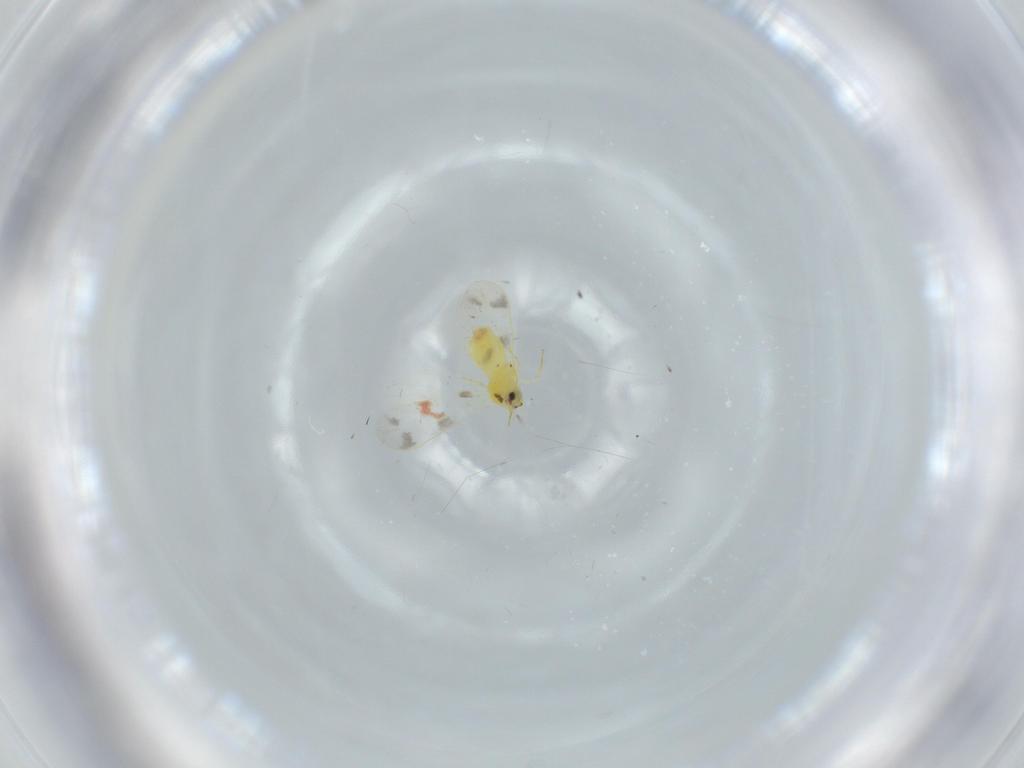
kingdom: Animalia
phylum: Arthropoda
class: Insecta
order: Hemiptera
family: Aleyrodidae
